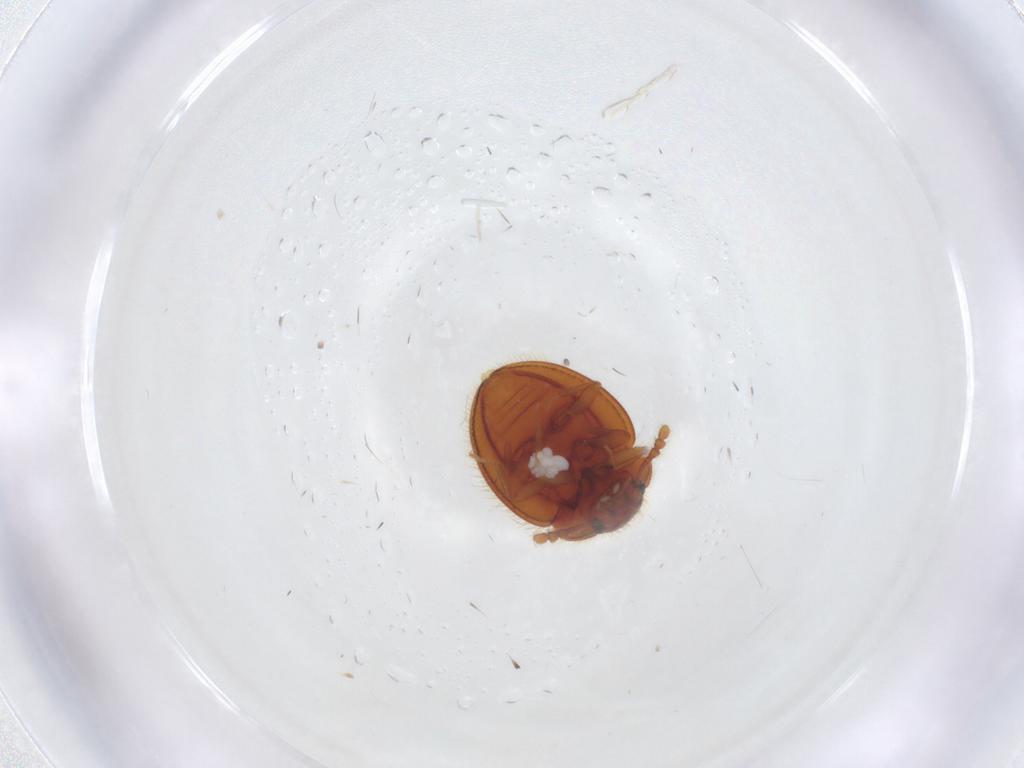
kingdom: Animalia
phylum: Arthropoda
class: Insecta
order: Coleoptera
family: Anamorphidae
